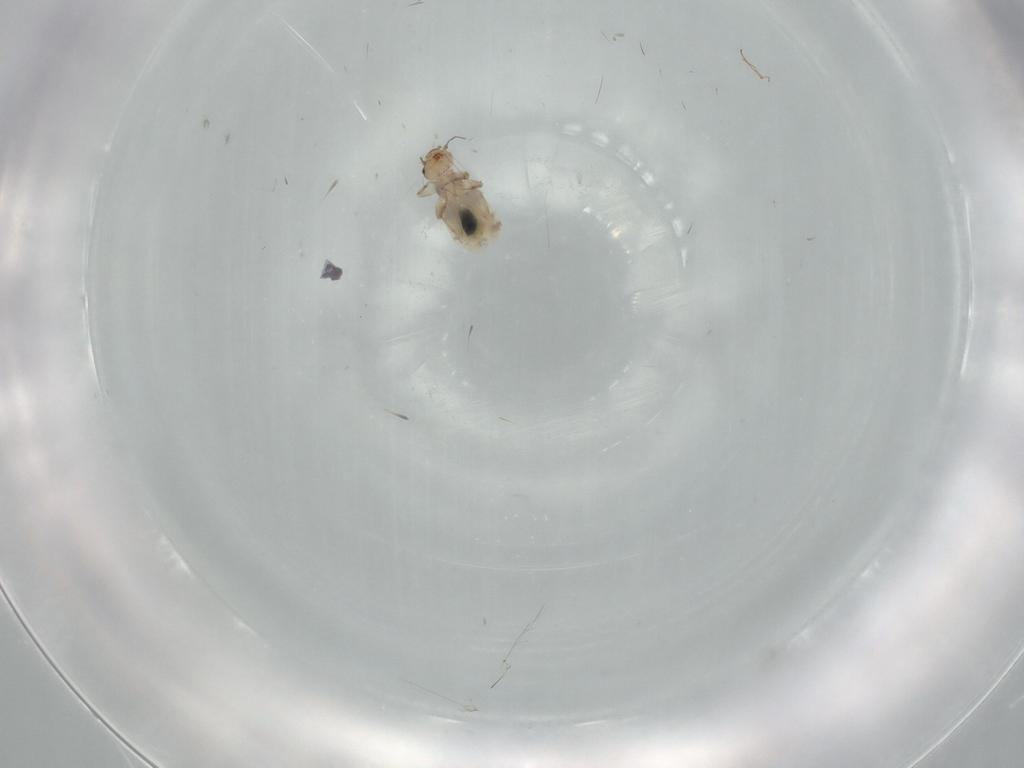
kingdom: Animalia
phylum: Arthropoda
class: Insecta
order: Psocodea
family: Liposcelididae
